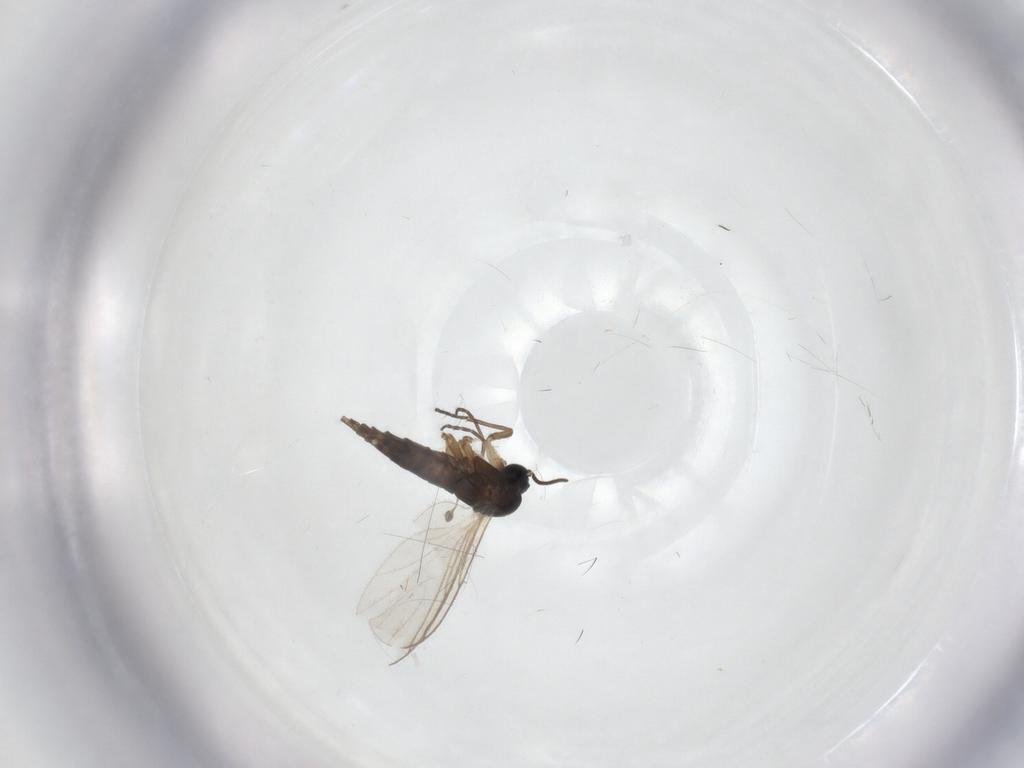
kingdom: Animalia
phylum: Arthropoda
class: Insecta
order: Diptera
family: Sciaridae
